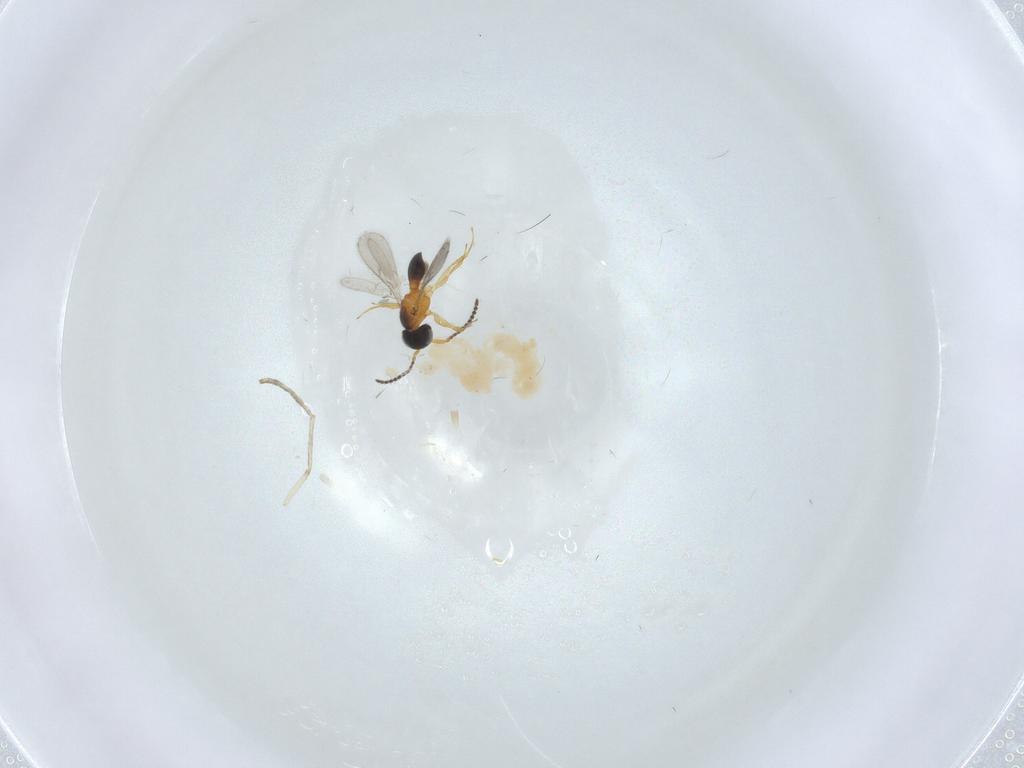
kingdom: Animalia
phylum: Arthropoda
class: Insecta
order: Hymenoptera
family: Scelionidae
